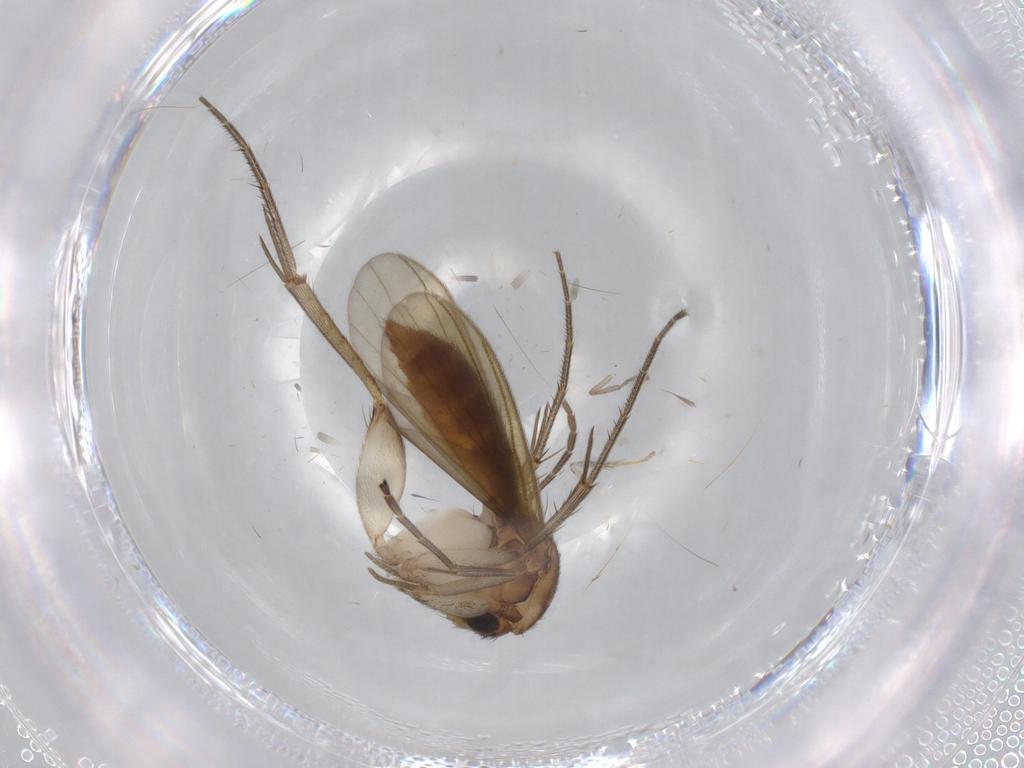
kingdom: Animalia
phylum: Arthropoda
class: Insecta
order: Diptera
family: Mycetophilidae
